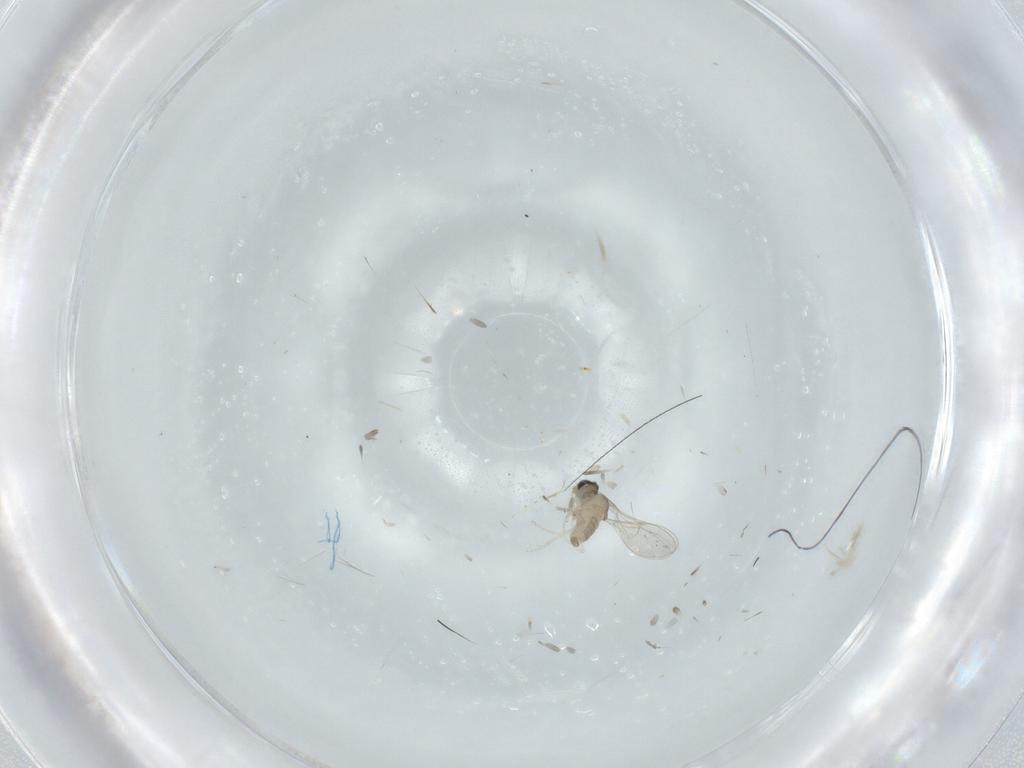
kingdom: Animalia
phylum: Arthropoda
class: Insecta
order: Diptera
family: Cecidomyiidae
